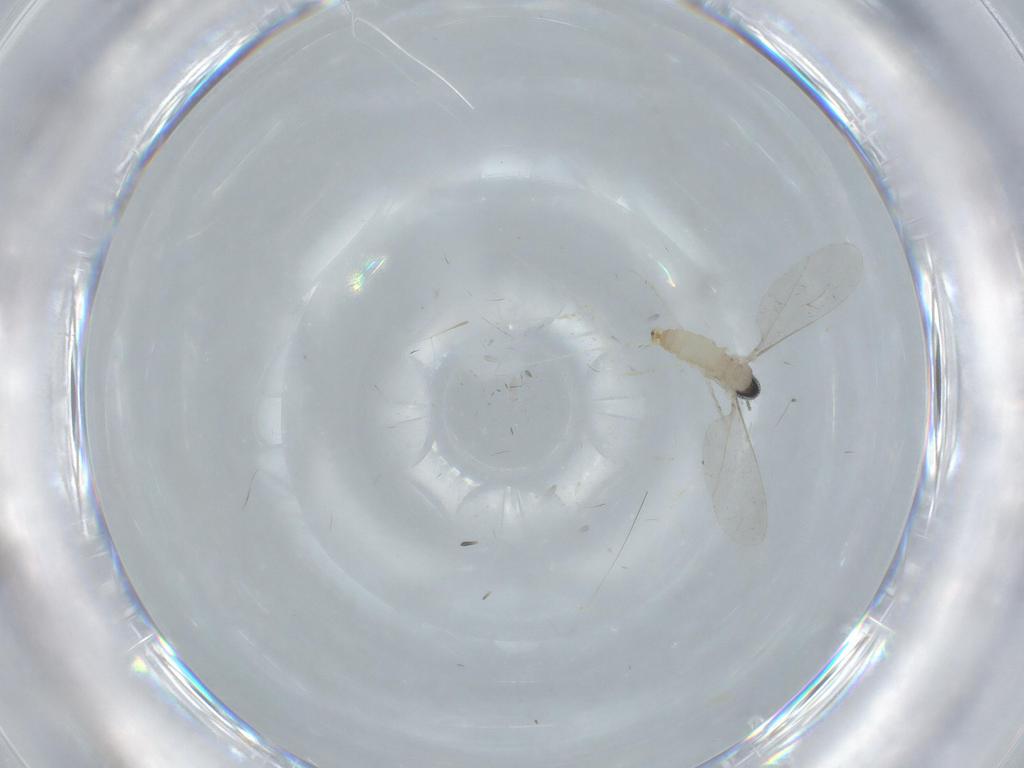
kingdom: Animalia
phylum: Arthropoda
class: Insecta
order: Diptera
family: Cecidomyiidae
